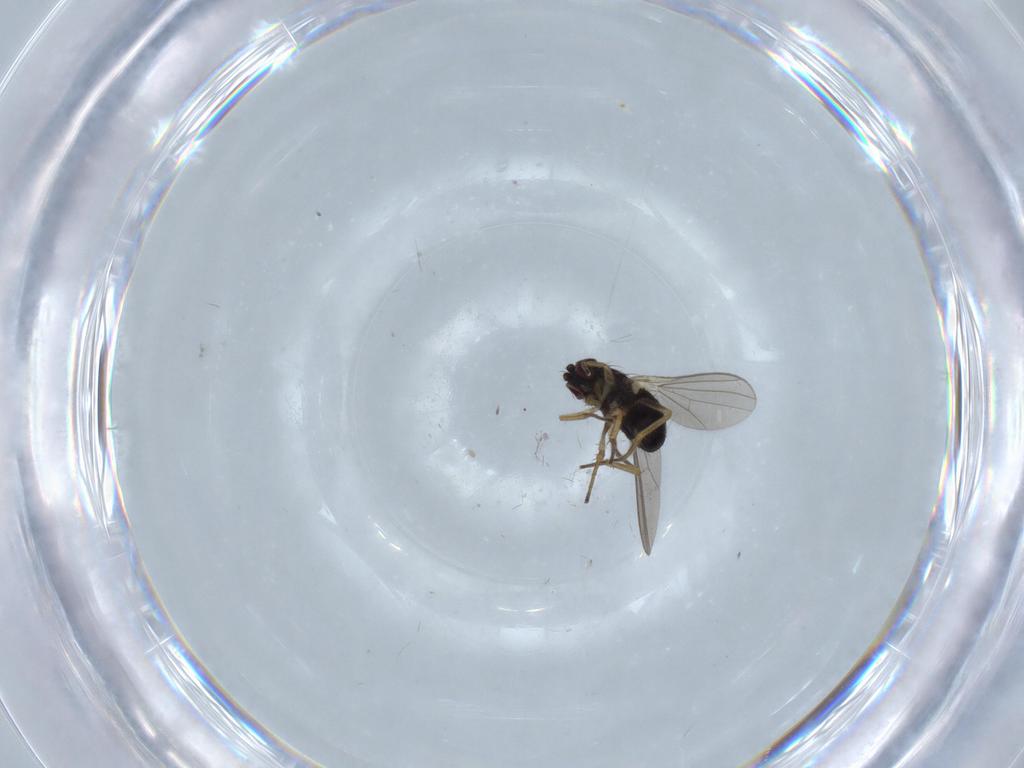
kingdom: Animalia
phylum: Arthropoda
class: Insecta
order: Diptera
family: Dolichopodidae
